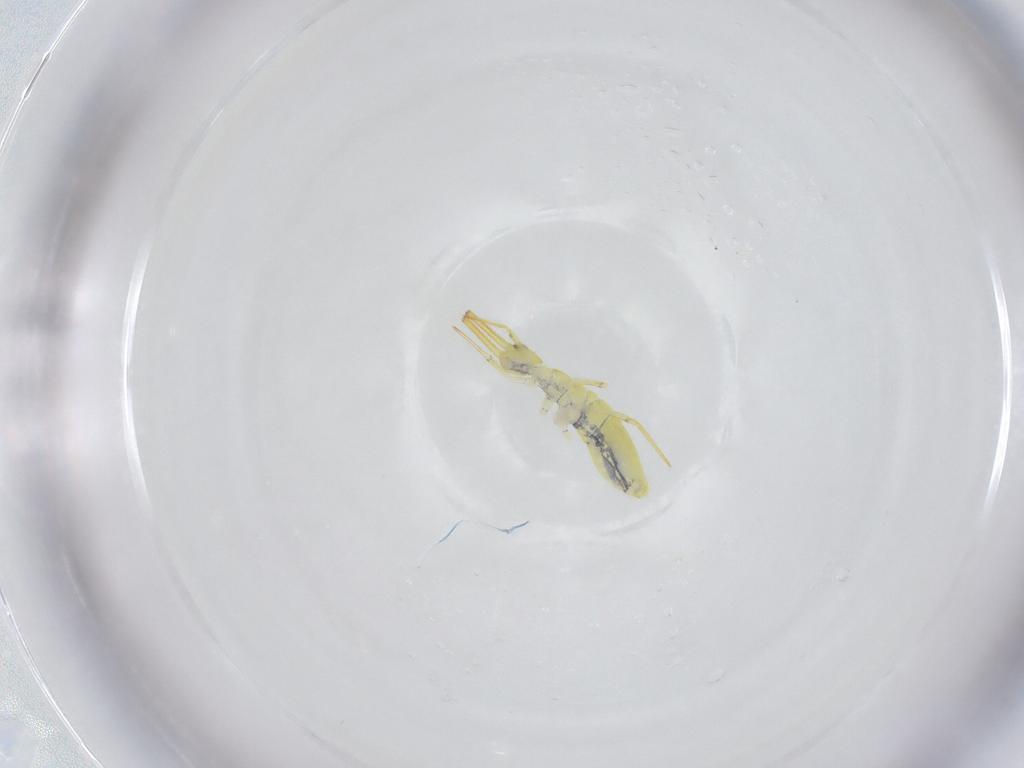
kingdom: Animalia
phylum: Arthropoda
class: Collembola
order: Entomobryomorpha
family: Paronellidae
